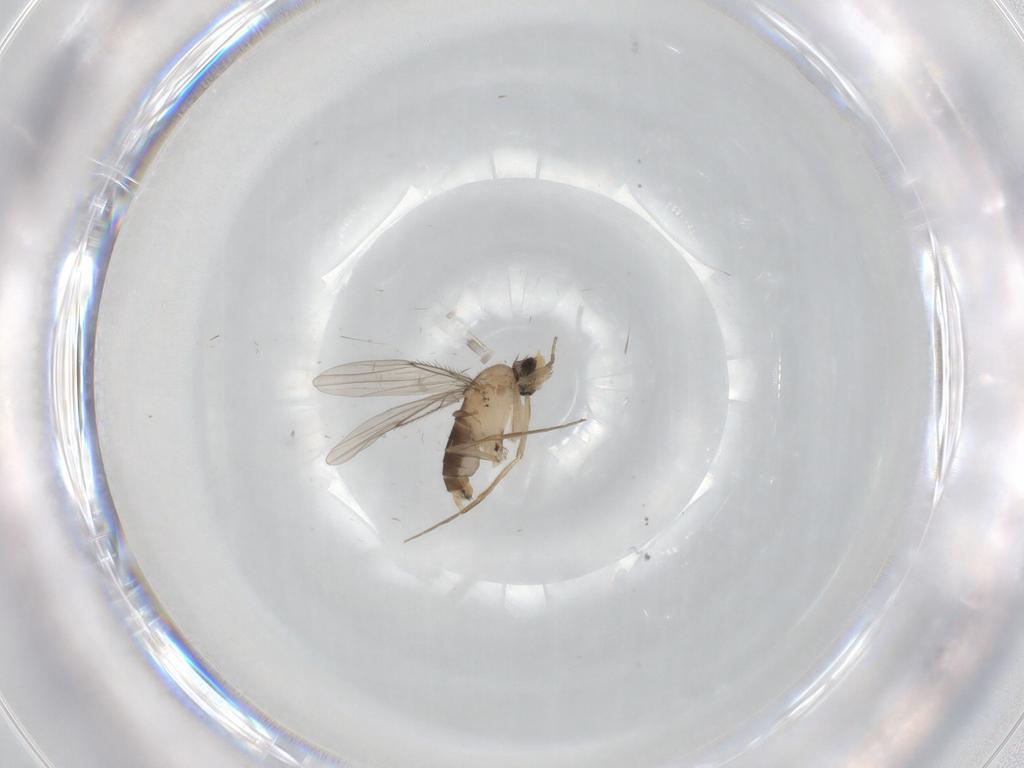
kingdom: Animalia
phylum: Arthropoda
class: Insecta
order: Diptera
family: Phoridae
